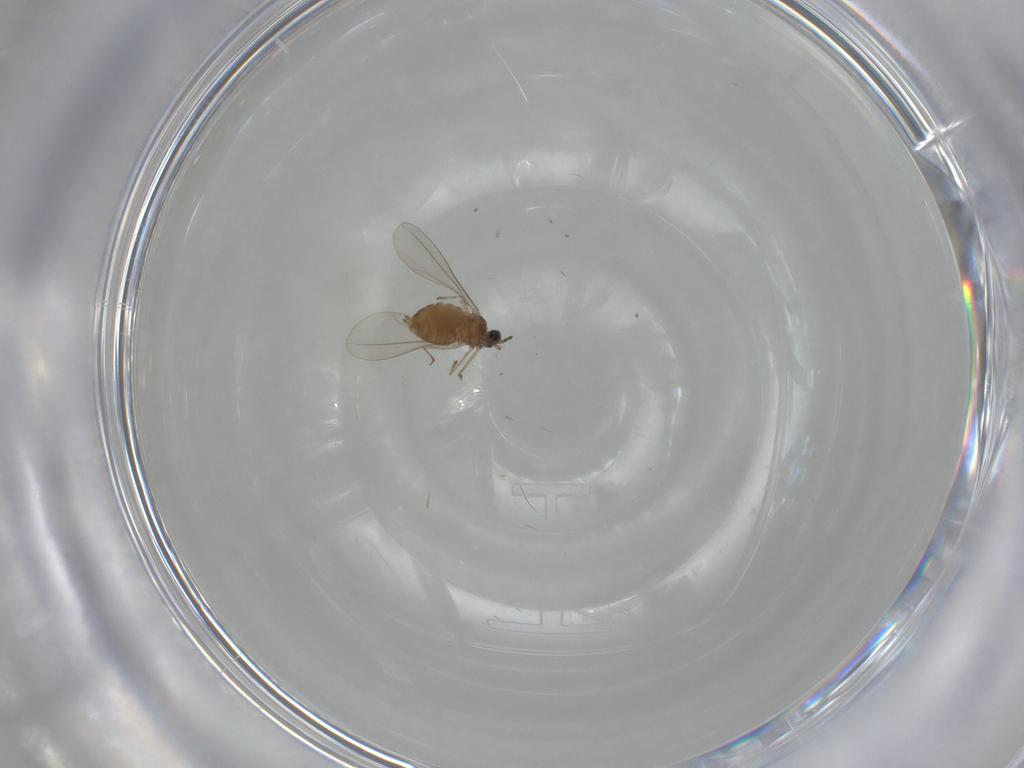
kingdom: Animalia
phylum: Arthropoda
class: Insecta
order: Diptera
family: Cecidomyiidae
